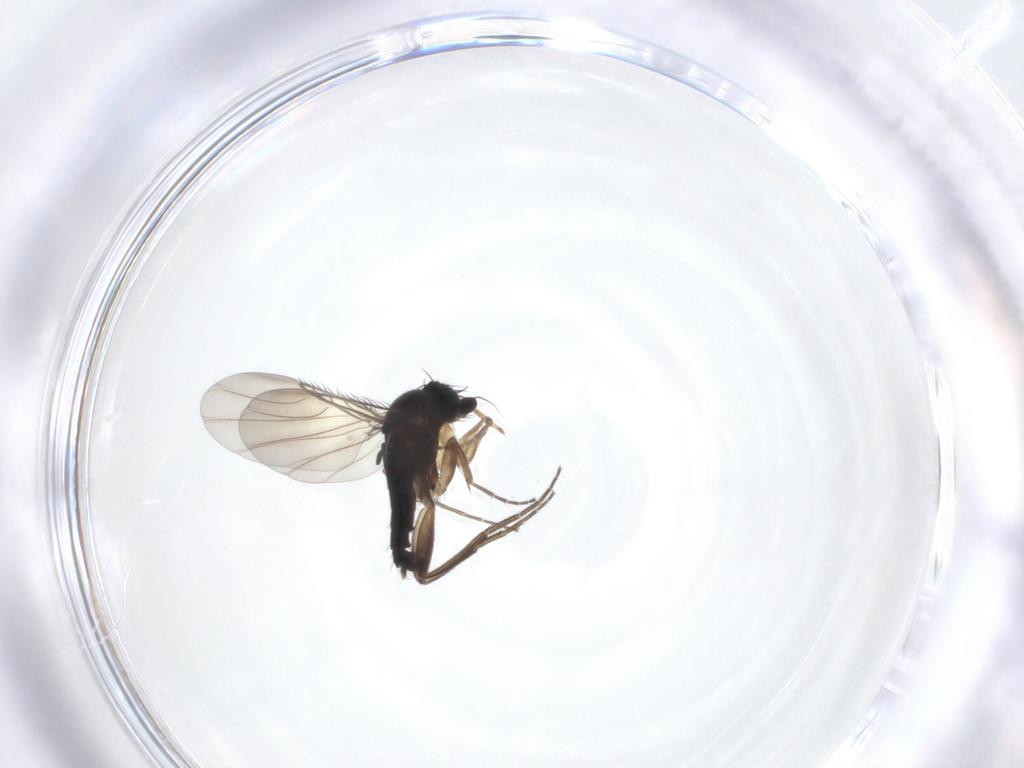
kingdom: Animalia
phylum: Arthropoda
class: Insecta
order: Diptera
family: Phoridae
